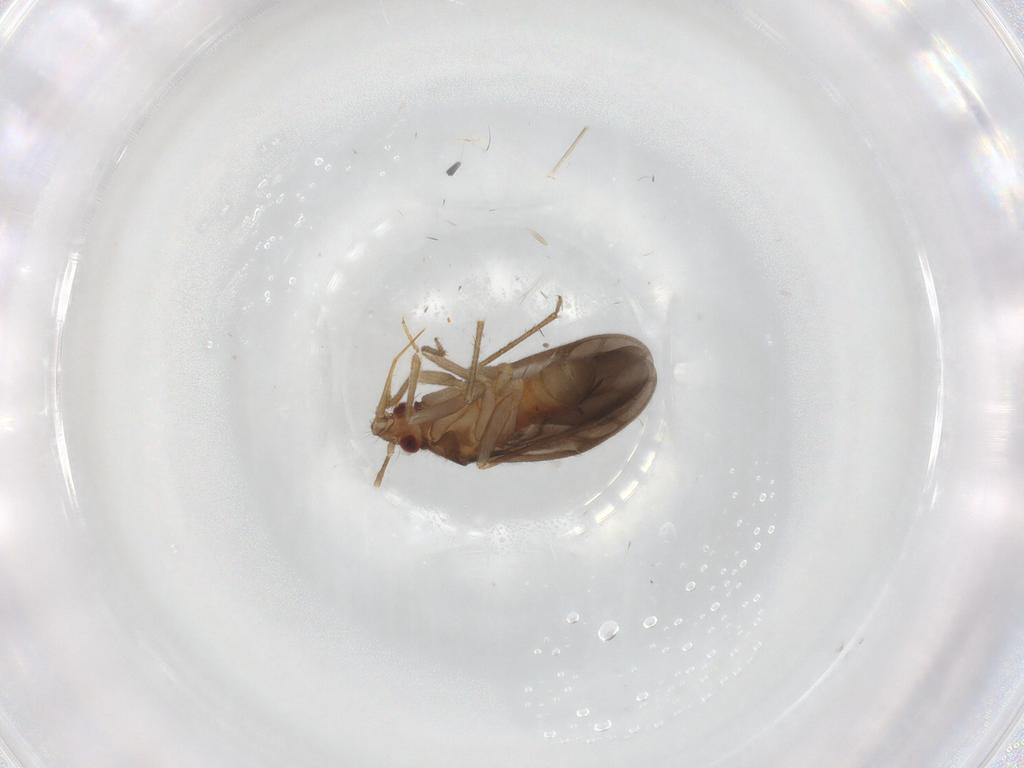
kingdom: Animalia
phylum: Arthropoda
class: Insecta
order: Hemiptera
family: Ceratocombidae
